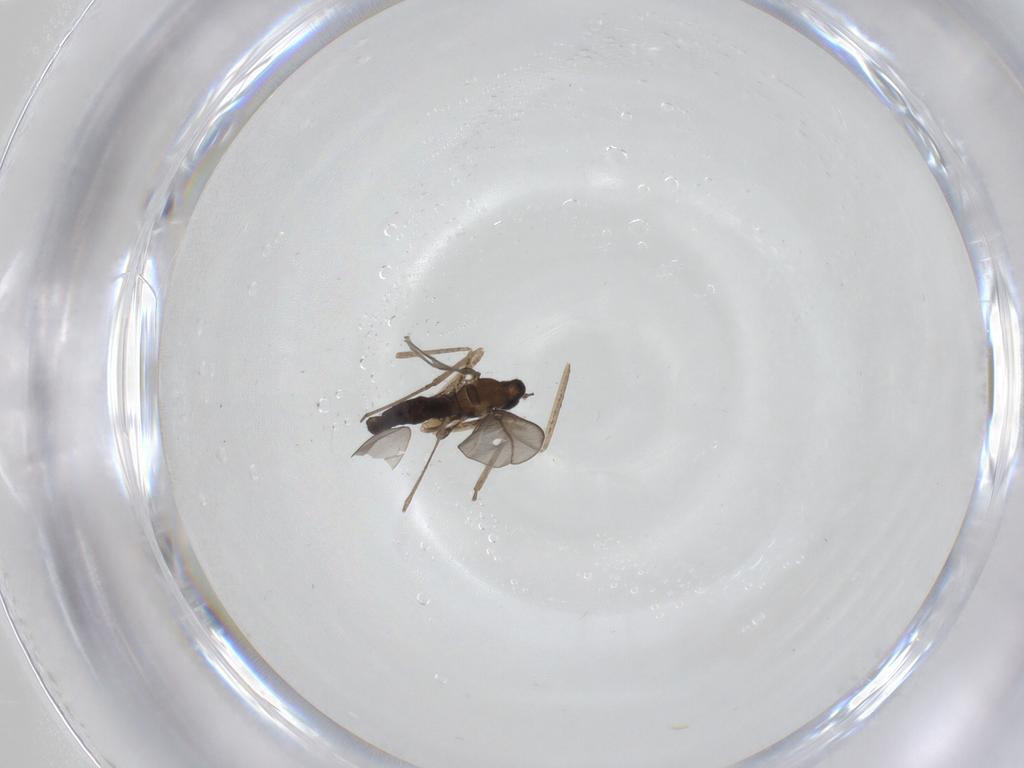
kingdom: Animalia
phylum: Arthropoda
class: Insecta
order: Diptera
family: Cecidomyiidae
